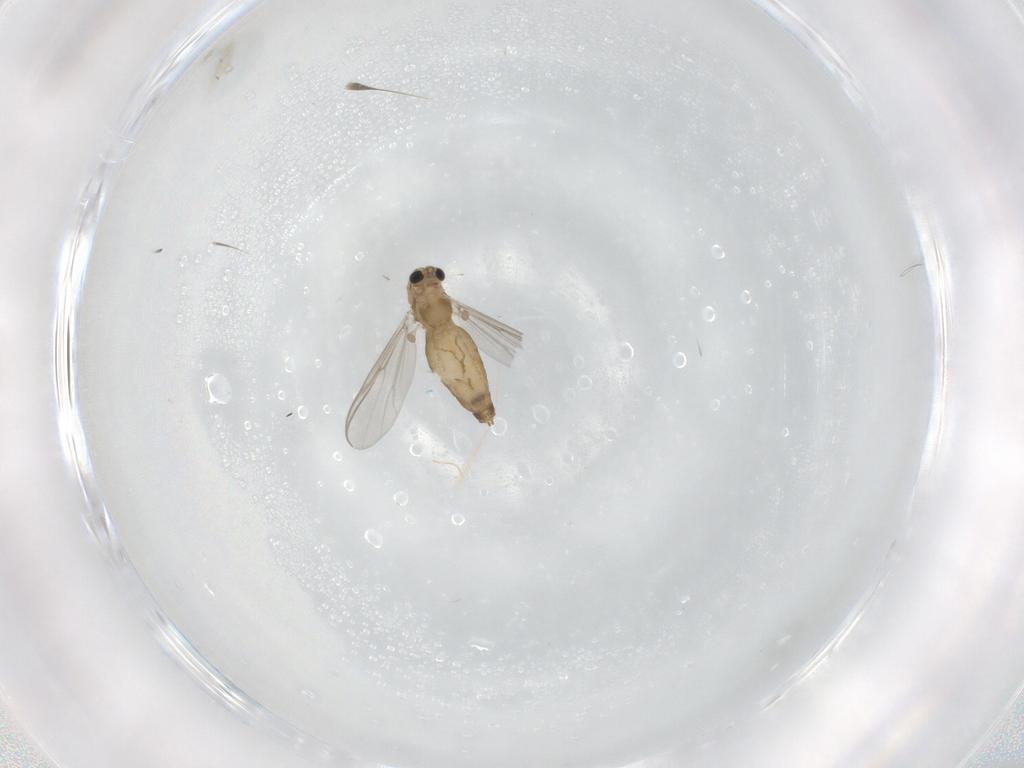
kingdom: Animalia
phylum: Arthropoda
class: Insecta
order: Diptera
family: Chironomidae
